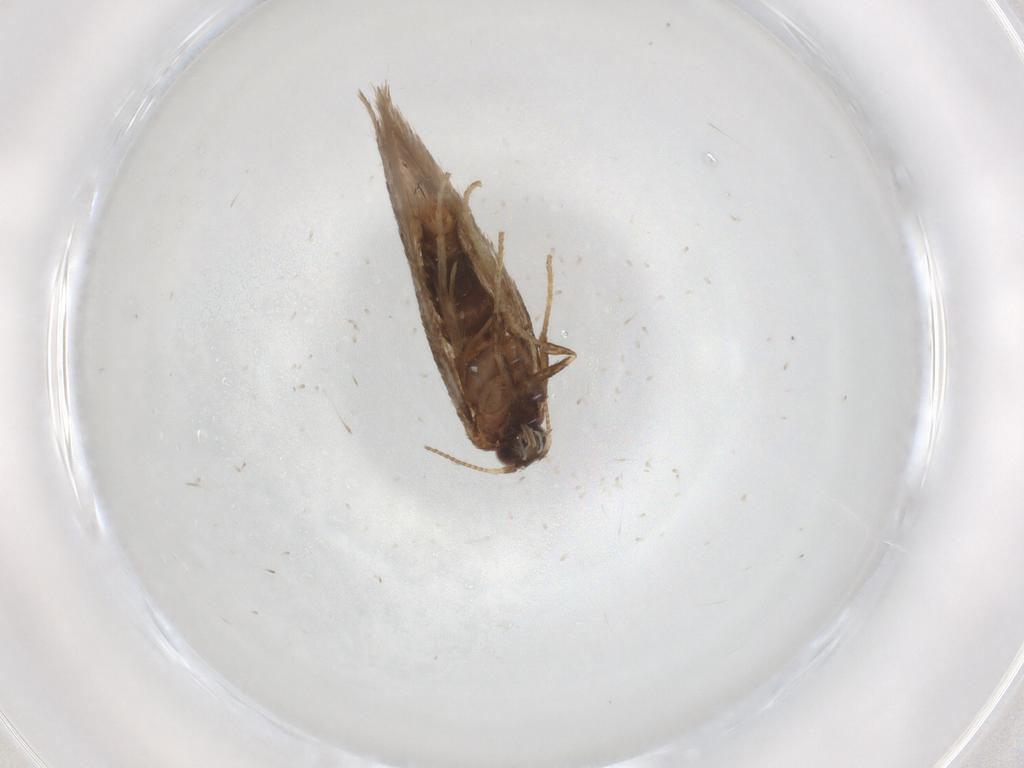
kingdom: Animalia
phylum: Arthropoda
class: Insecta
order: Lepidoptera
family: Nepticulidae
